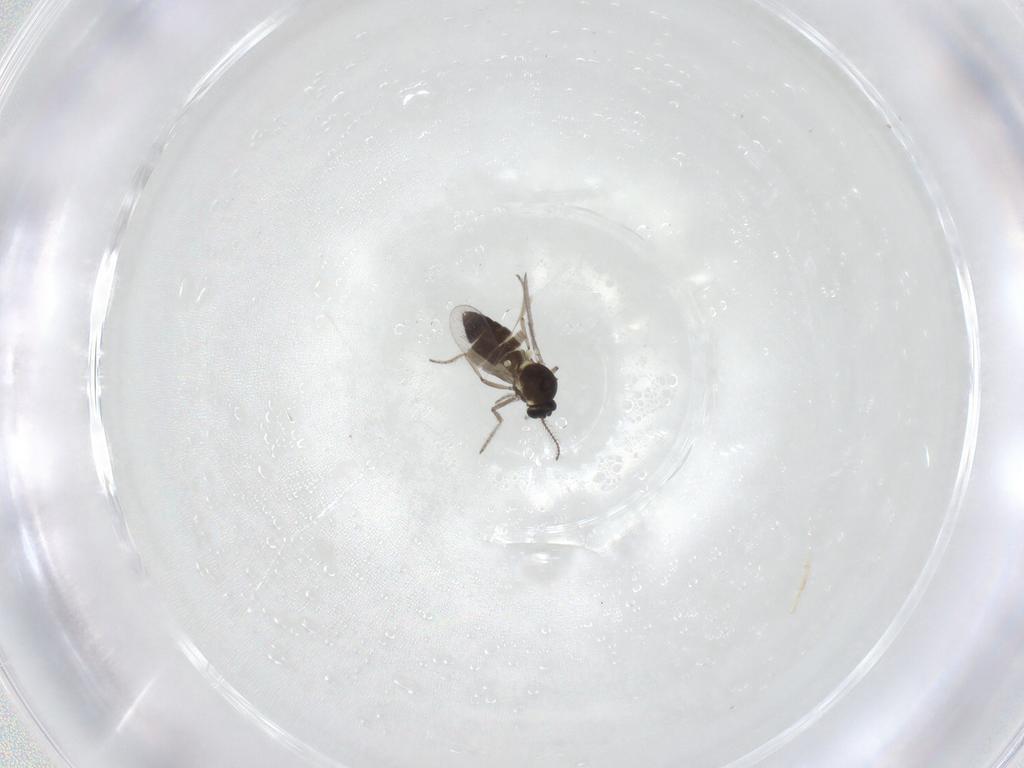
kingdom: Animalia
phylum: Arthropoda
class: Insecta
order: Diptera
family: Ceratopogonidae
